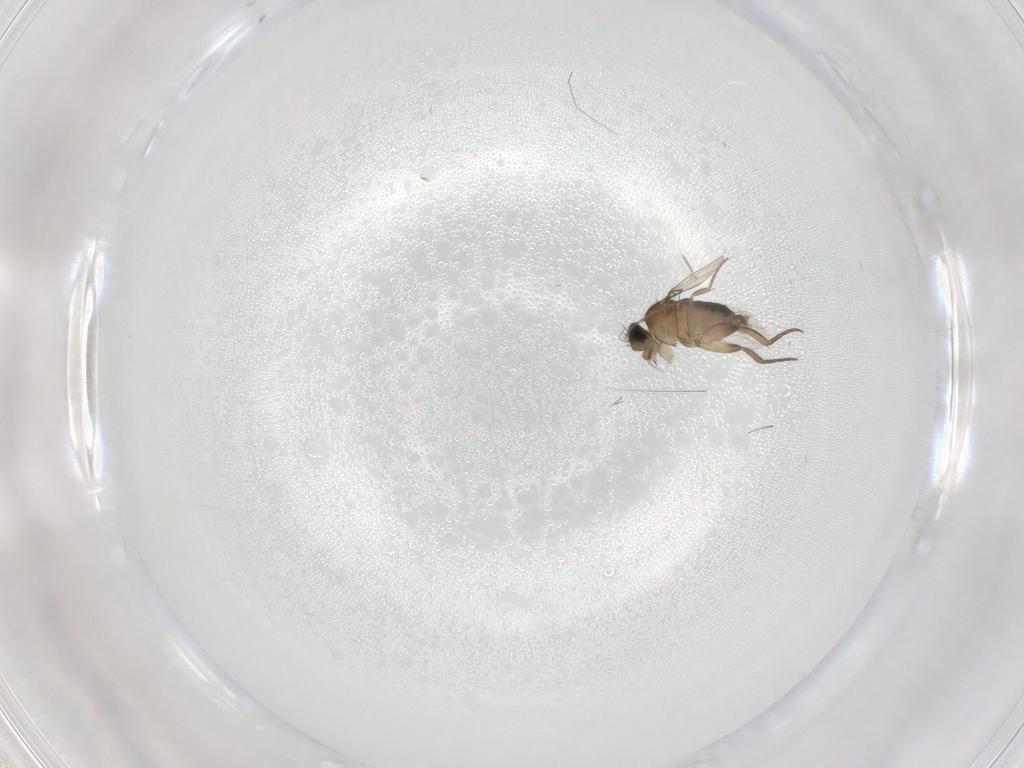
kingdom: Animalia
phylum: Arthropoda
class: Insecta
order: Diptera
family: Phoridae
